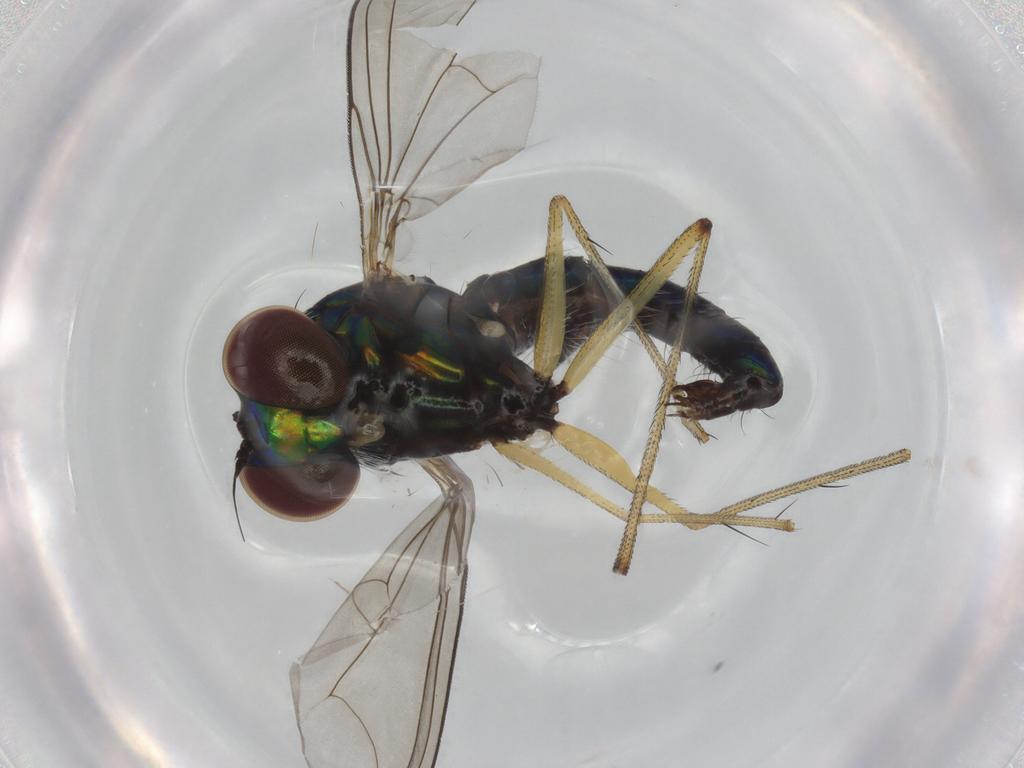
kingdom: Animalia
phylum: Arthropoda
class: Insecta
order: Diptera
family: Dolichopodidae
